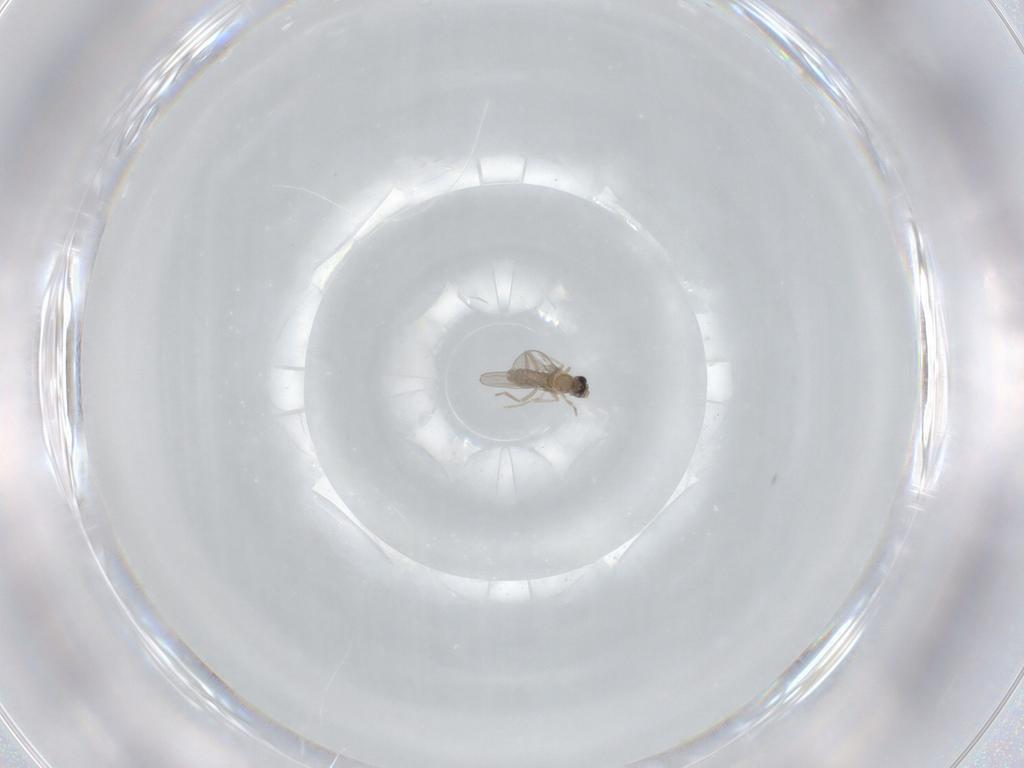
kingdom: Animalia
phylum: Arthropoda
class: Insecta
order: Diptera
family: Cecidomyiidae
